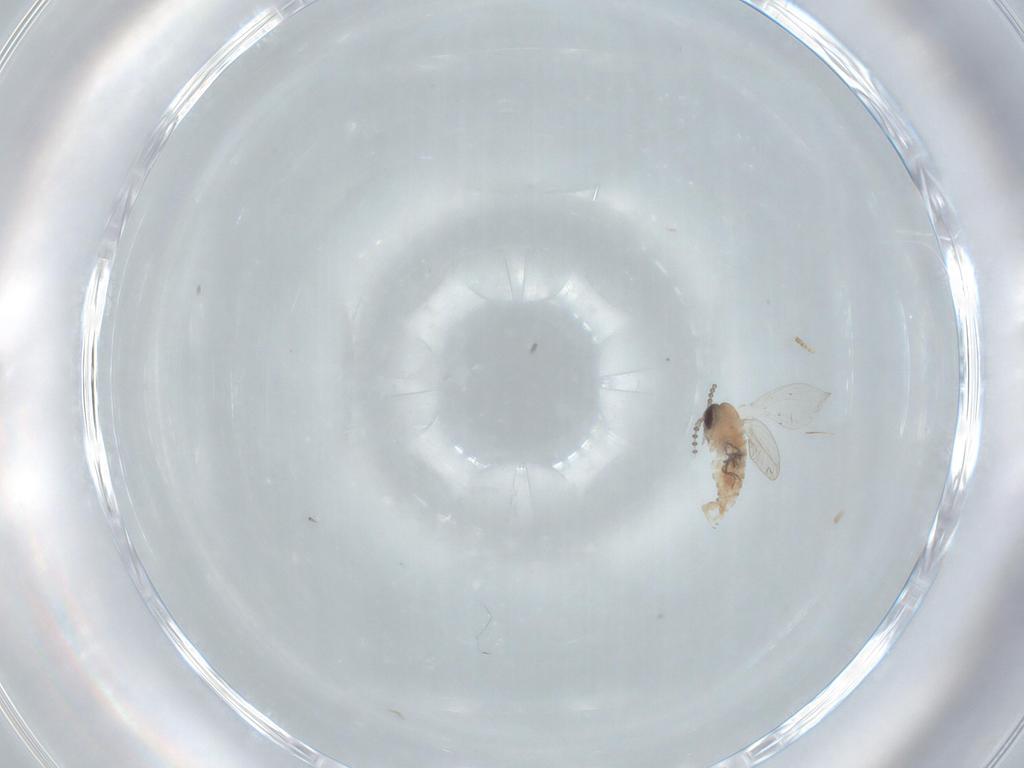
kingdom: Animalia
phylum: Arthropoda
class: Insecta
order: Diptera
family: Psychodidae
